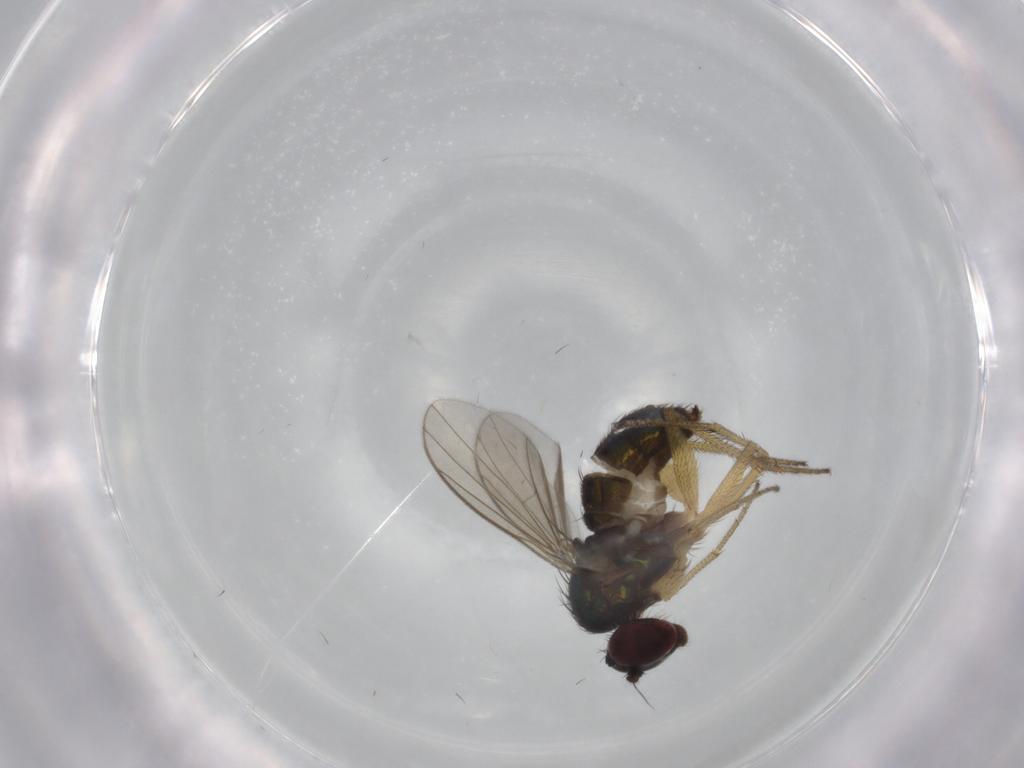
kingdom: Animalia
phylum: Arthropoda
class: Insecta
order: Diptera
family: Dolichopodidae
